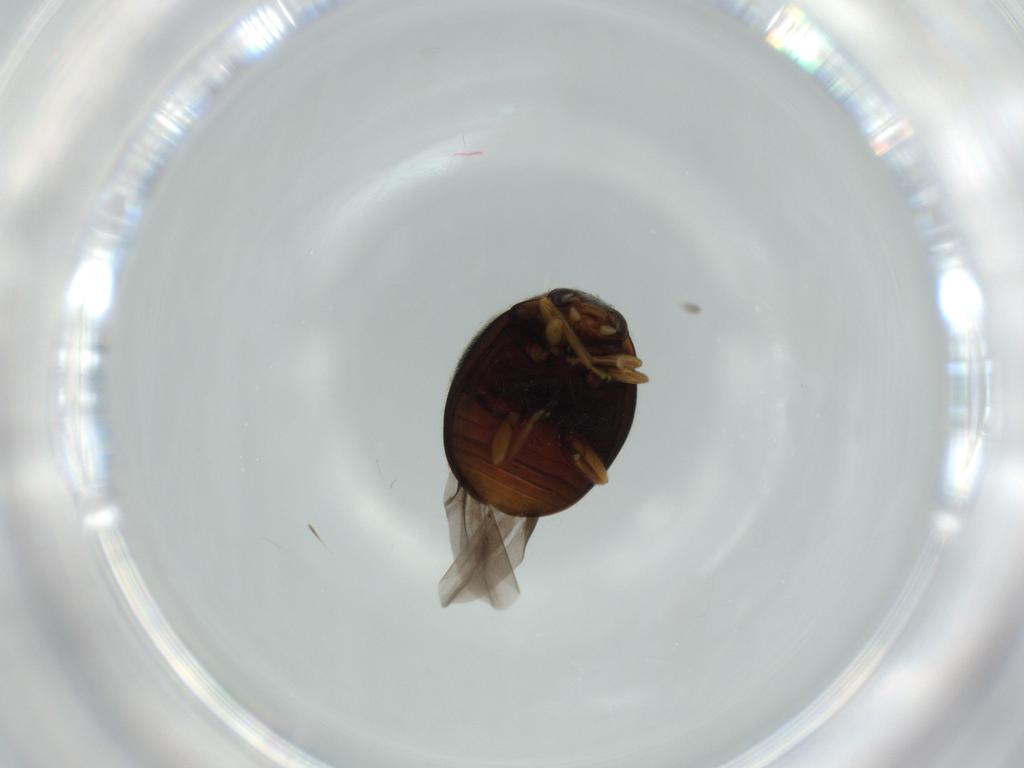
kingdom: Animalia
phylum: Arthropoda
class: Insecta
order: Coleoptera
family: Coccinellidae
